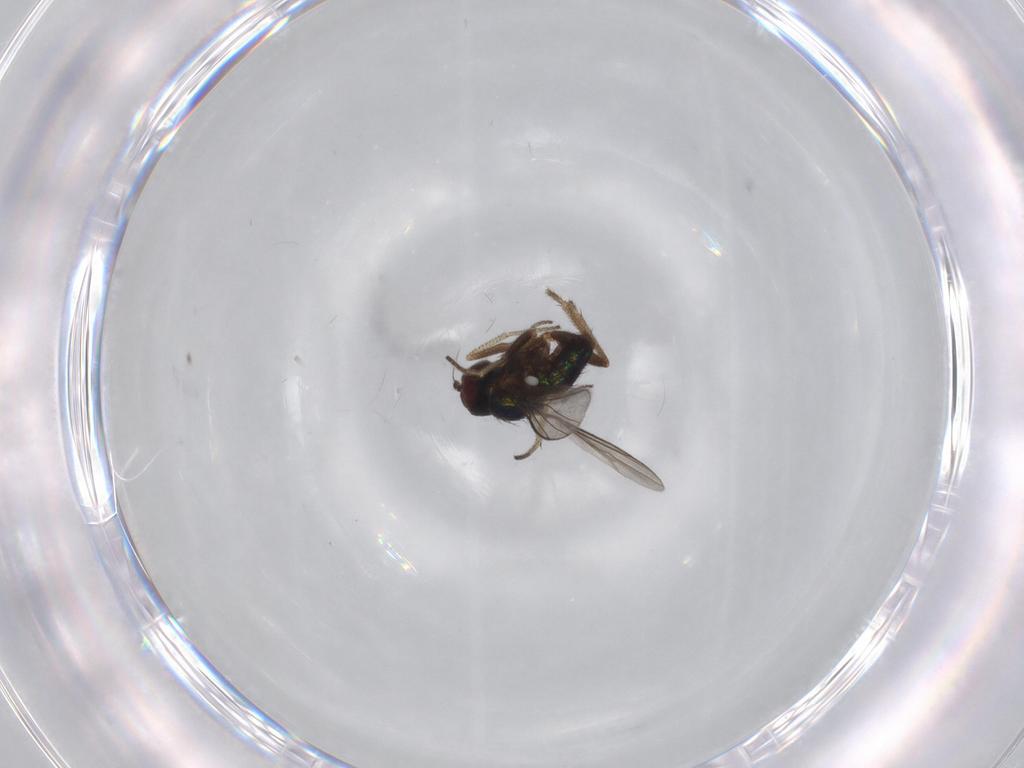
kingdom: Animalia
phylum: Arthropoda
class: Insecta
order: Diptera
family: Dolichopodidae
